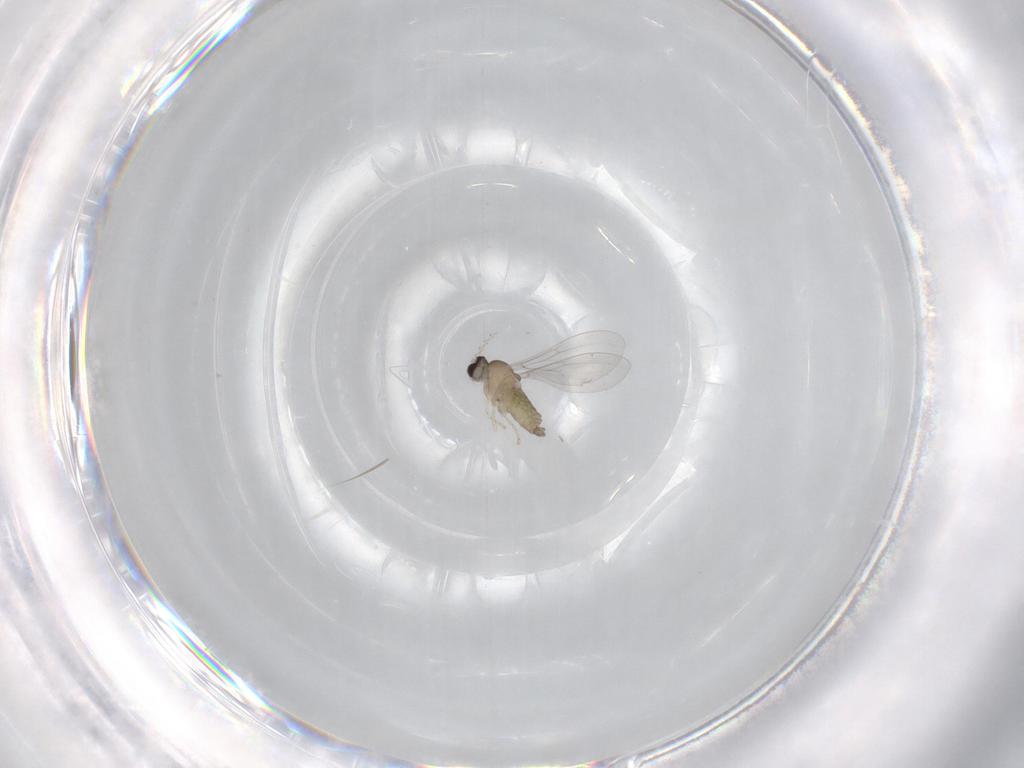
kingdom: Animalia
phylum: Arthropoda
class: Insecta
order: Diptera
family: Cecidomyiidae
